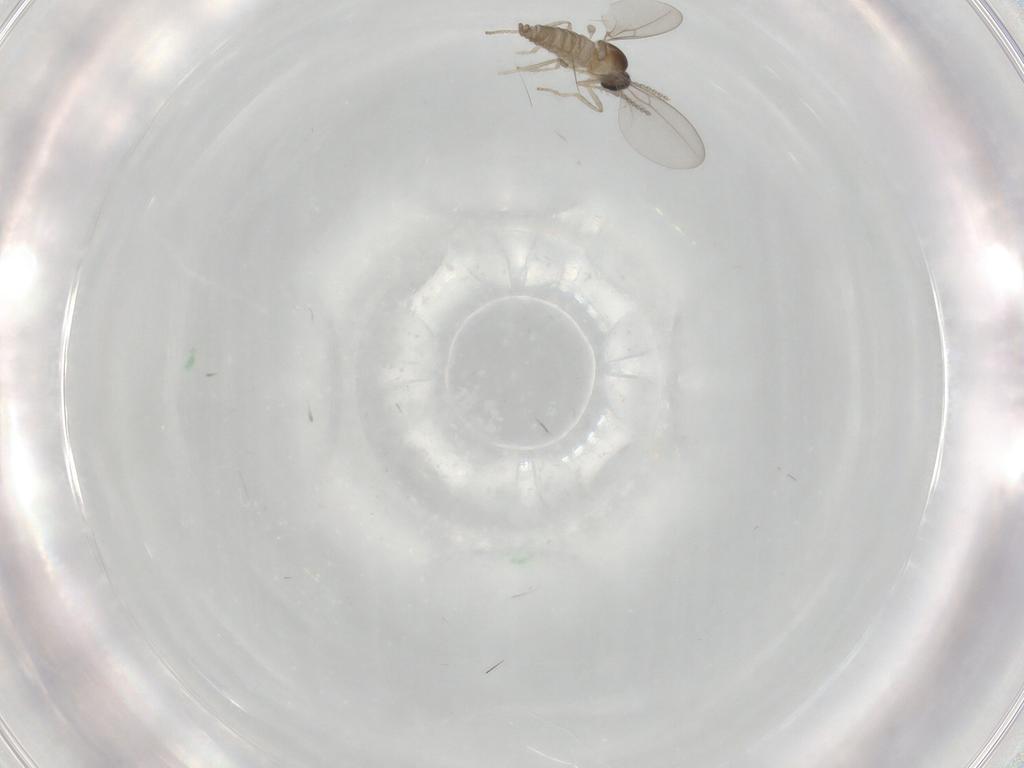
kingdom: Animalia
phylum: Arthropoda
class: Insecta
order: Diptera
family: Cecidomyiidae
